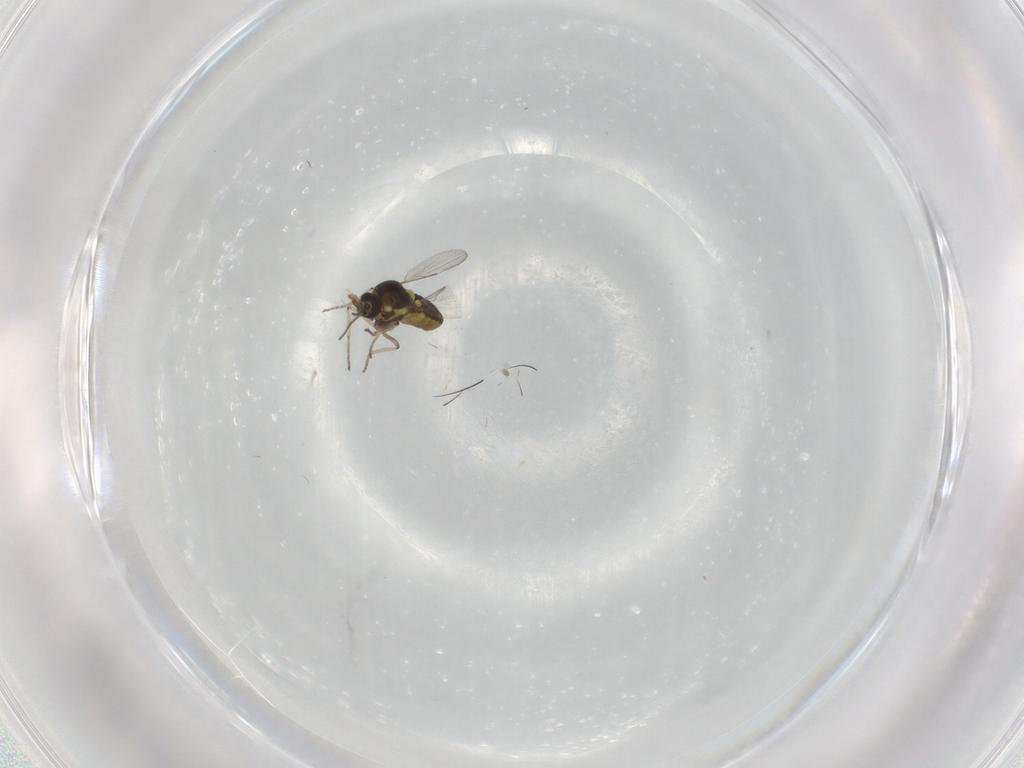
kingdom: Animalia
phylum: Arthropoda
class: Insecta
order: Diptera
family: Ceratopogonidae
